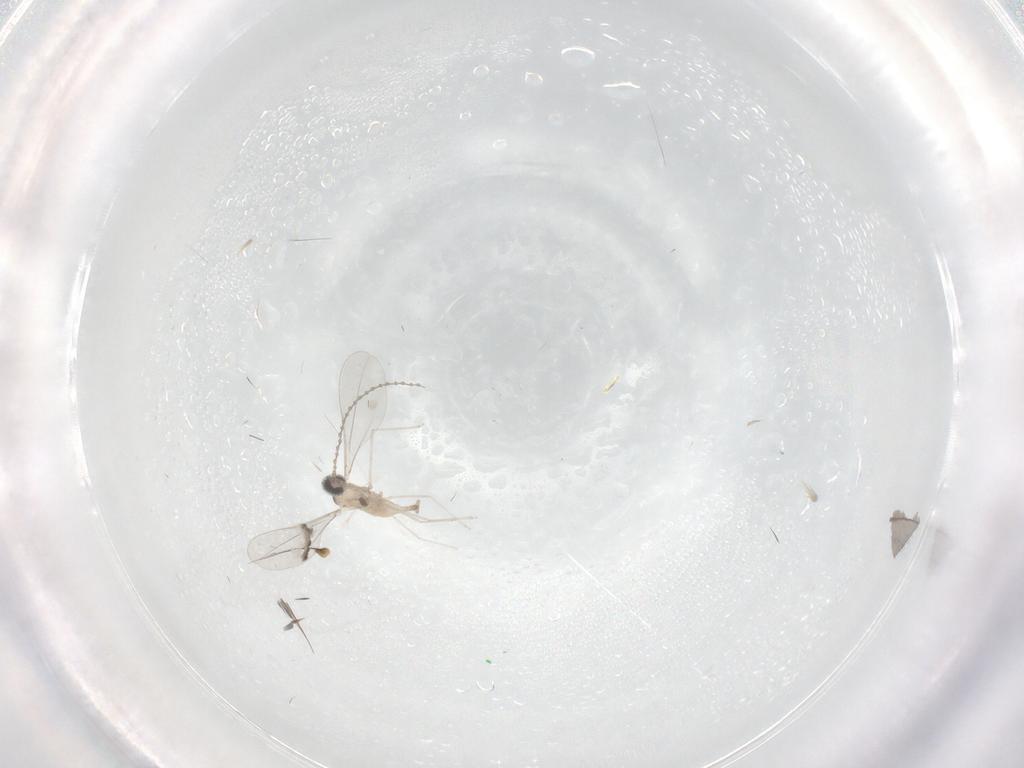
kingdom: Animalia
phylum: Arthropoda
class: Insecta
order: Diptera
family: Cecidomyiidae
